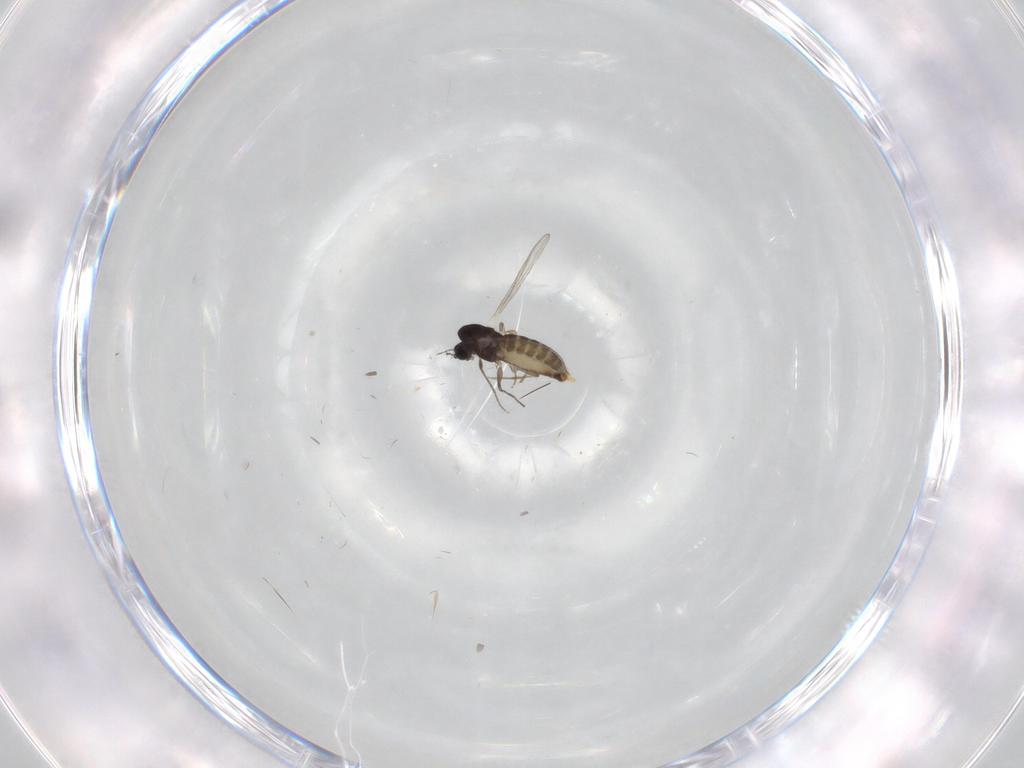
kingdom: Animalia
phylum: Arthropoda
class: Insecta
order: Diptera
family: Chironomidae
